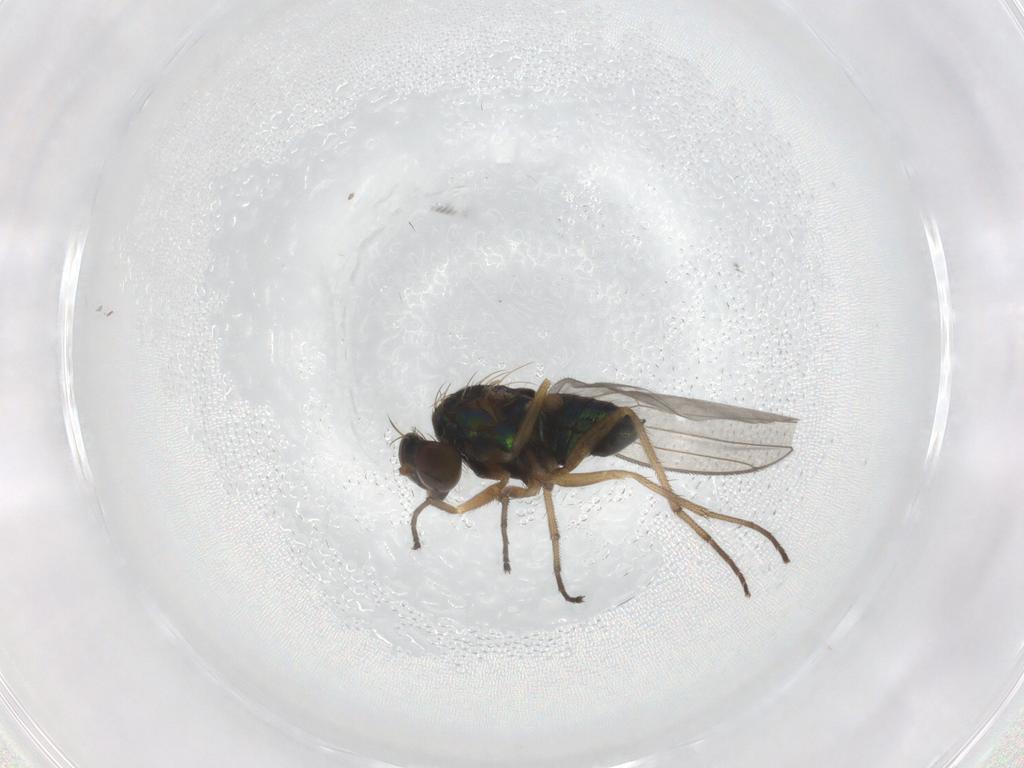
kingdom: Animalia
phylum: Arthropoda
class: Insecta
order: Diptera
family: Dolichopodidae
